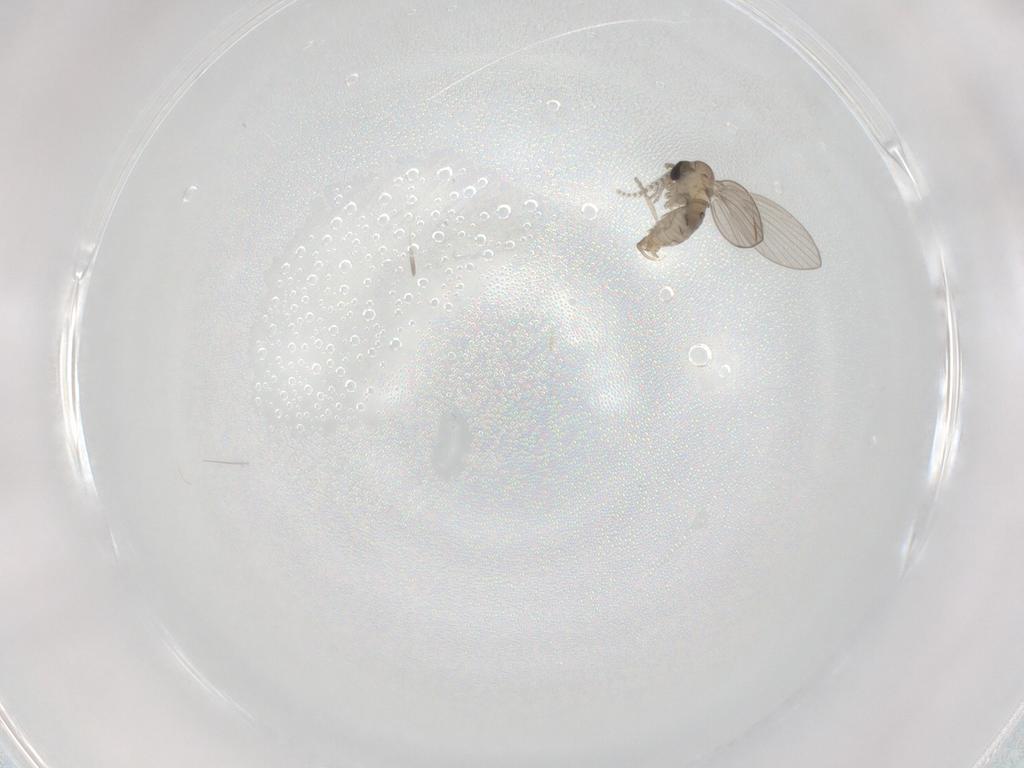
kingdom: Animalia
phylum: Arthropoda
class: Insecta
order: Diptera
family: Psychodidae
